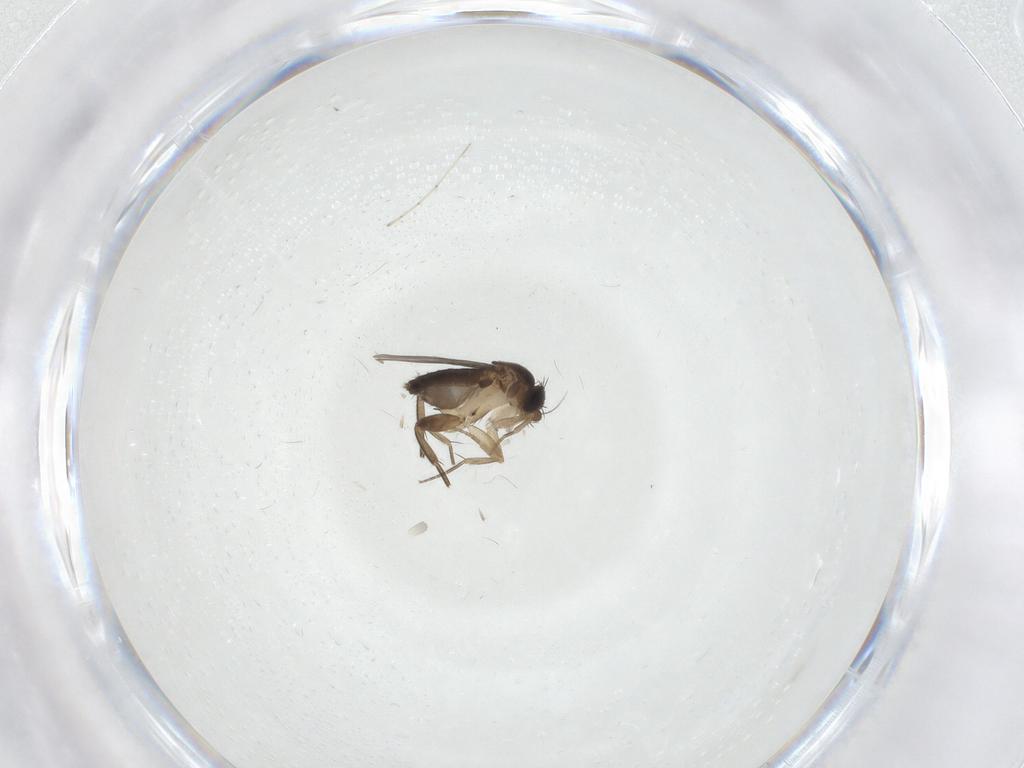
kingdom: Animalia
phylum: Arthropoda
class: Insecta
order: Diptera
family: Phoridae
